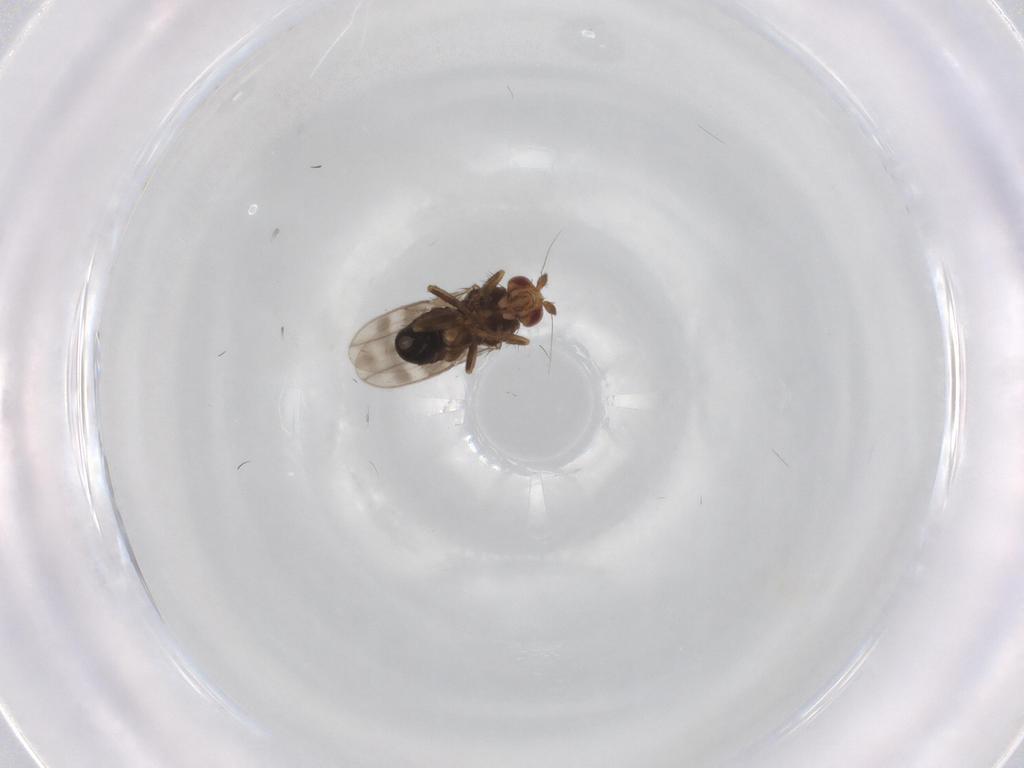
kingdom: Animalia
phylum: Arthropoda
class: Insecta
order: Diptera
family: Sphaeroceridae
